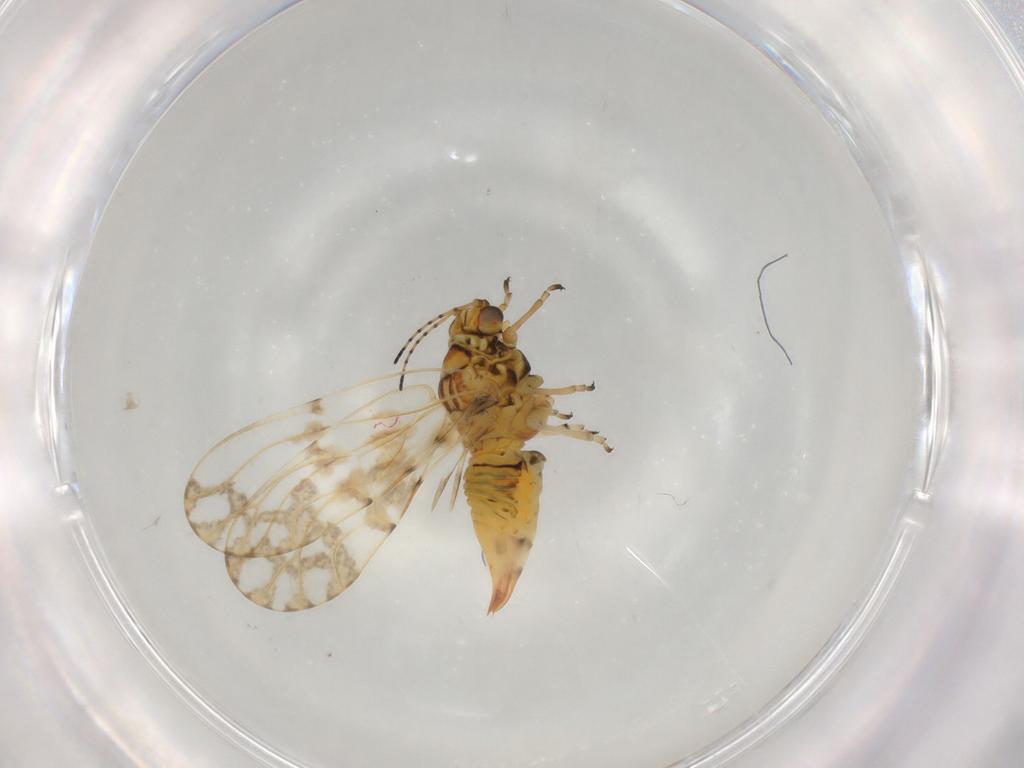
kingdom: Animalia
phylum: Arthropoda
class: Insecta
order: Hemiptera
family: Psylloidea_incertae_sedis
